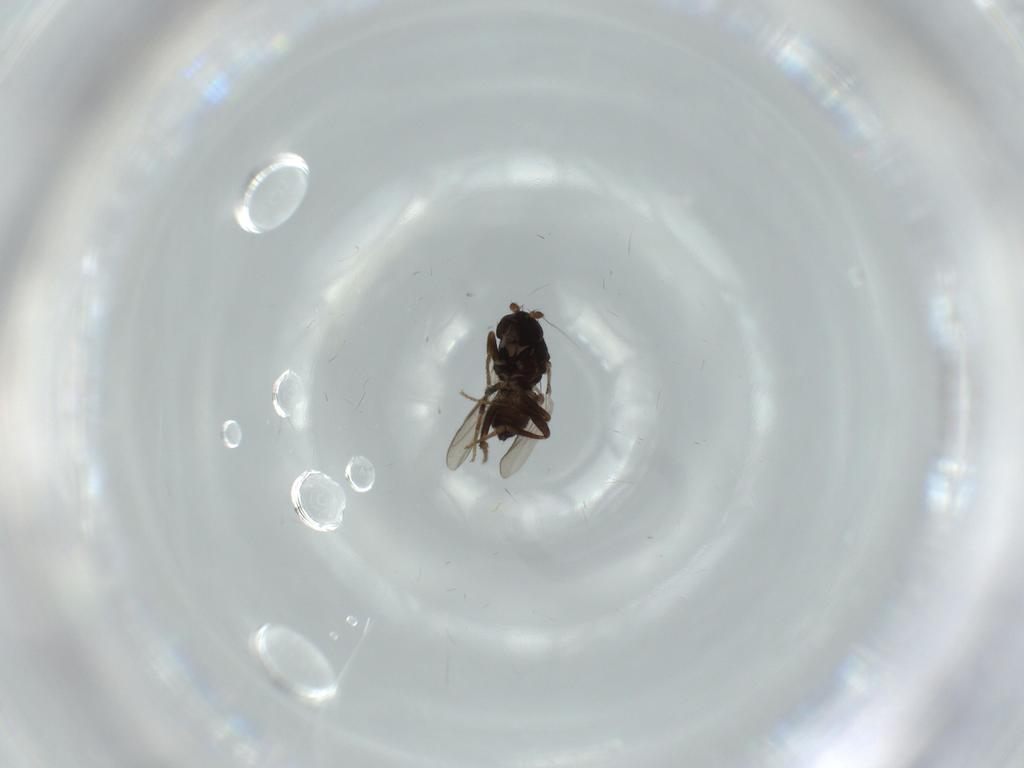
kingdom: Animalia
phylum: Arthropoda
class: Insecta
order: Diptera
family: Sphaeroceridae
